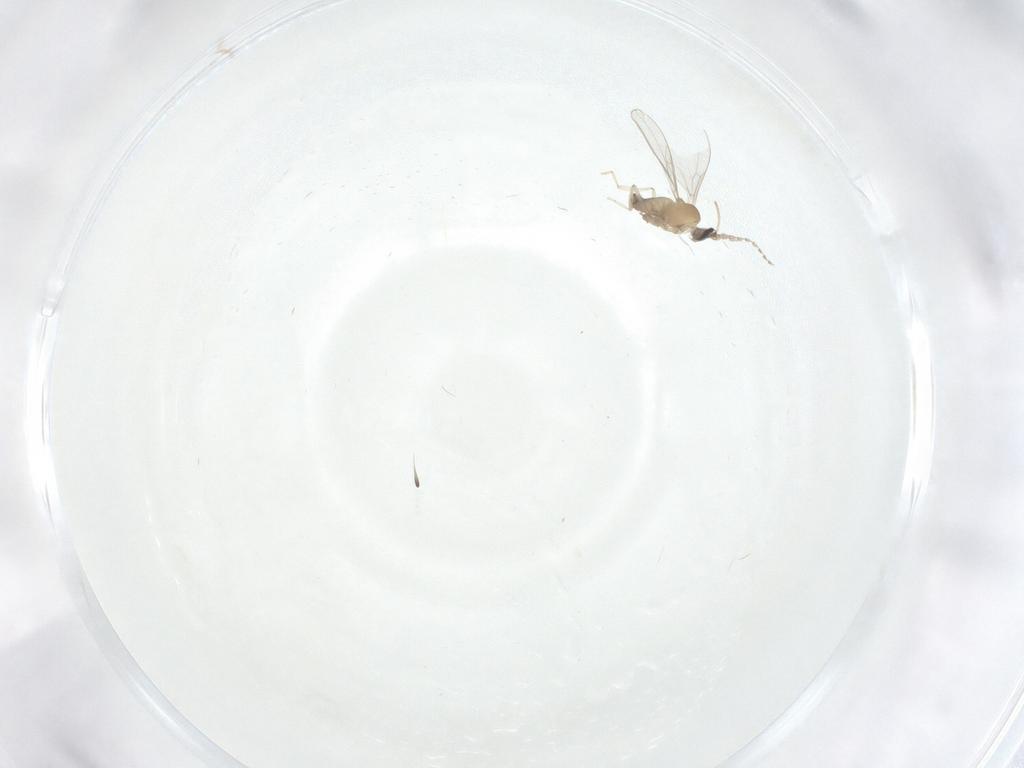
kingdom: Animalia
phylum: Arthropoda
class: Insecta
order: Diptera
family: Cecidomyiidae
